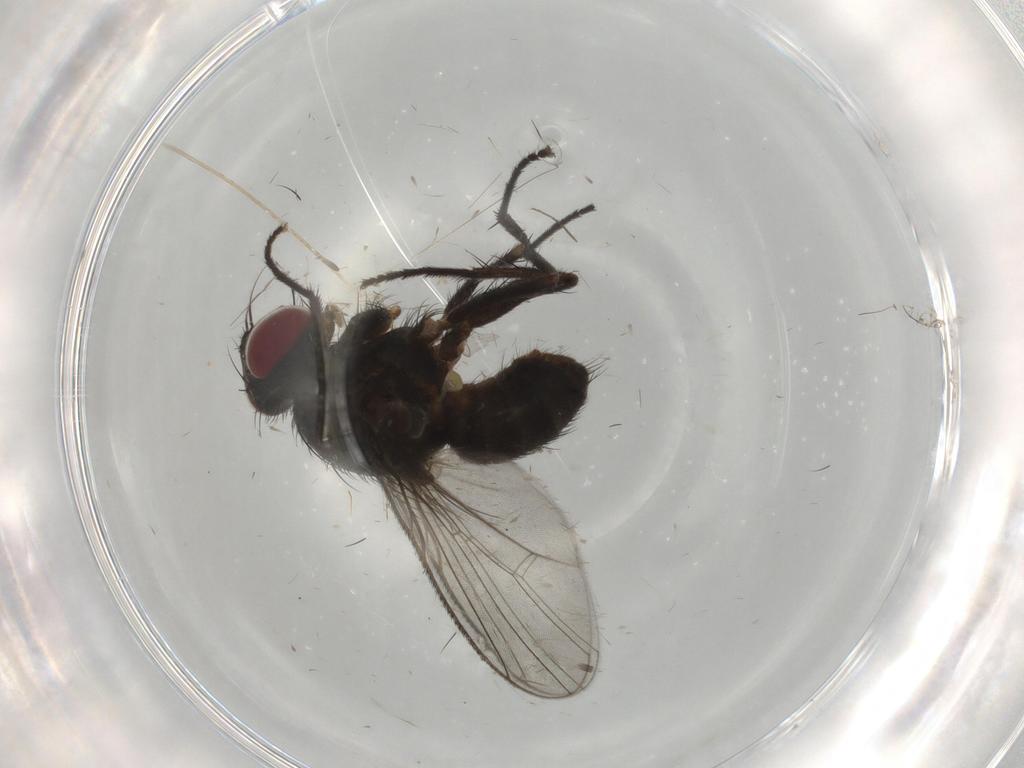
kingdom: Animalia
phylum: Arthropoda
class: Insecta
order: Diptera
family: Muscidae
